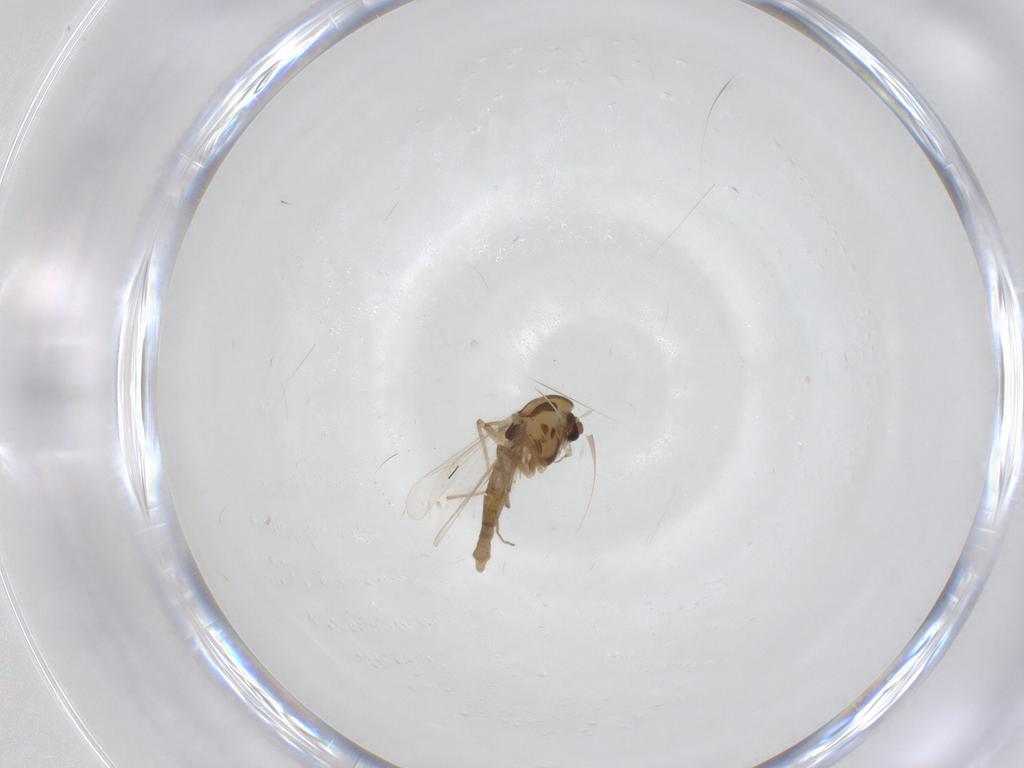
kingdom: Animalia
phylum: Arthropoda
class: Insecta
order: Diptera
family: Chironomidae
